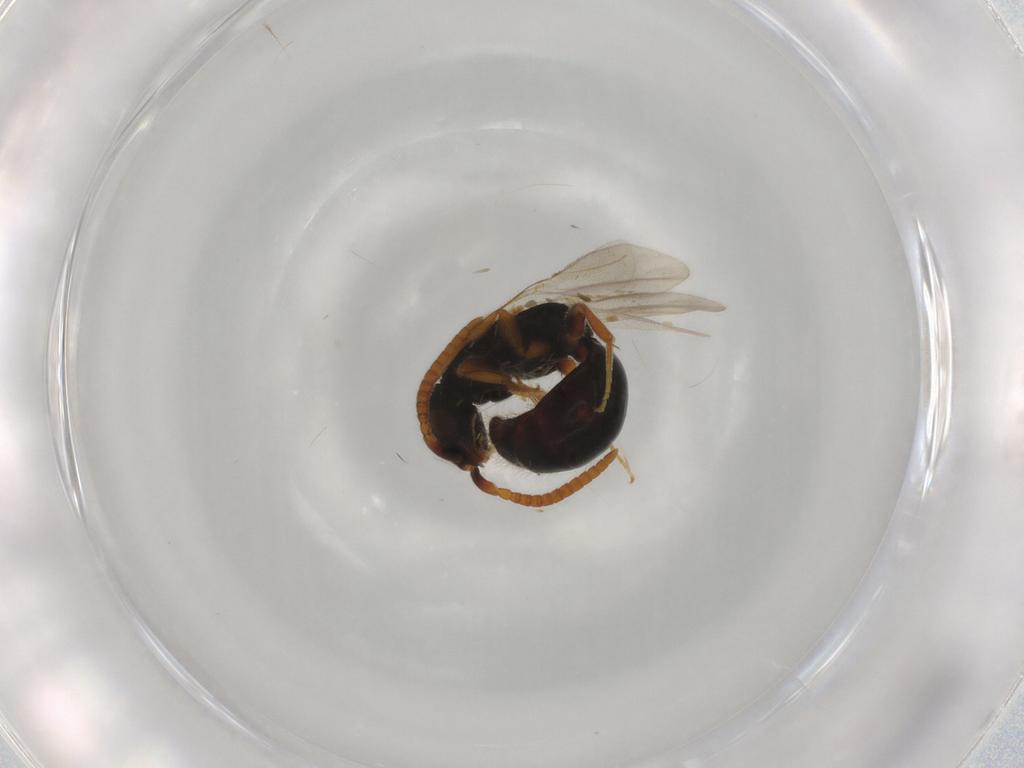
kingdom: Animalia
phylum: Arthropoda
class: Insecta
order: Hymenoptera
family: Bethylidae
